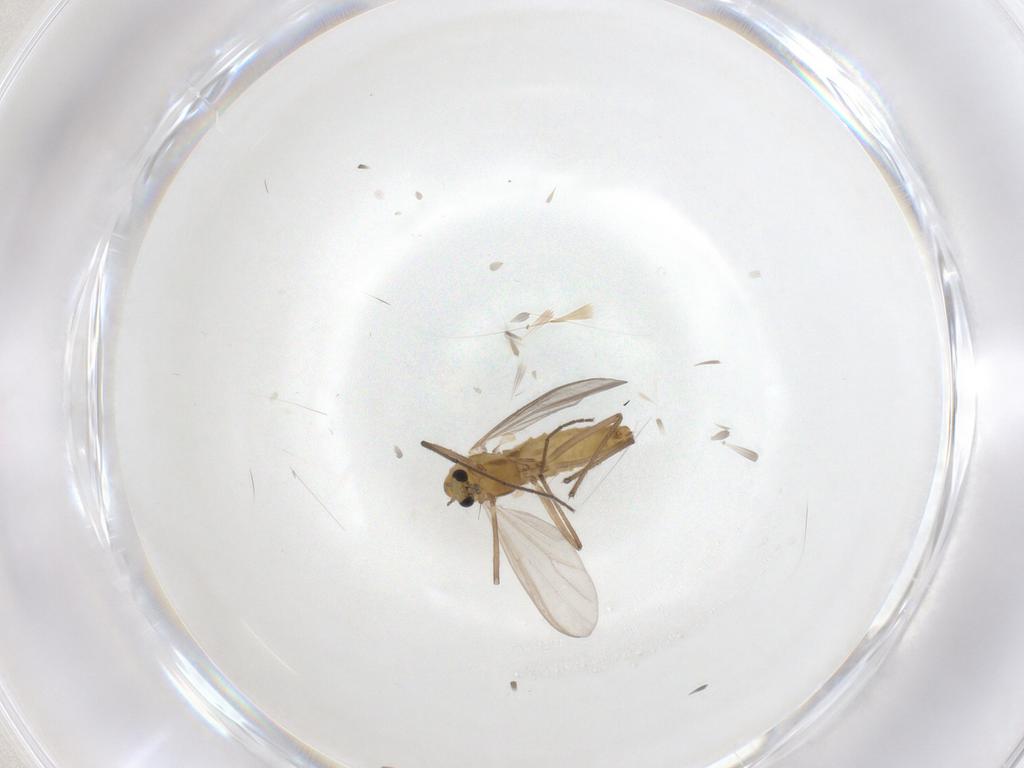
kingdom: Animalia
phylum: Arthropoda
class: Insecta
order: Diptera
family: Chironomidae
